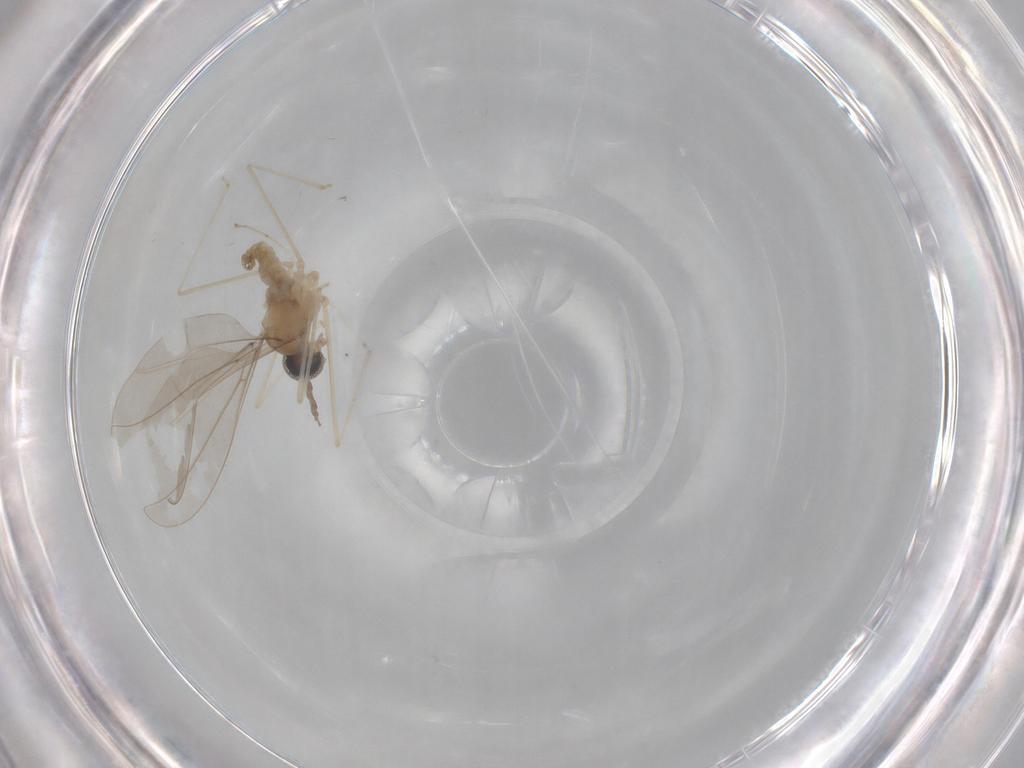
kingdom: Animalia
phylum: Arthropoda
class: Insecta
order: Diptera
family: Cecidomyiidae
